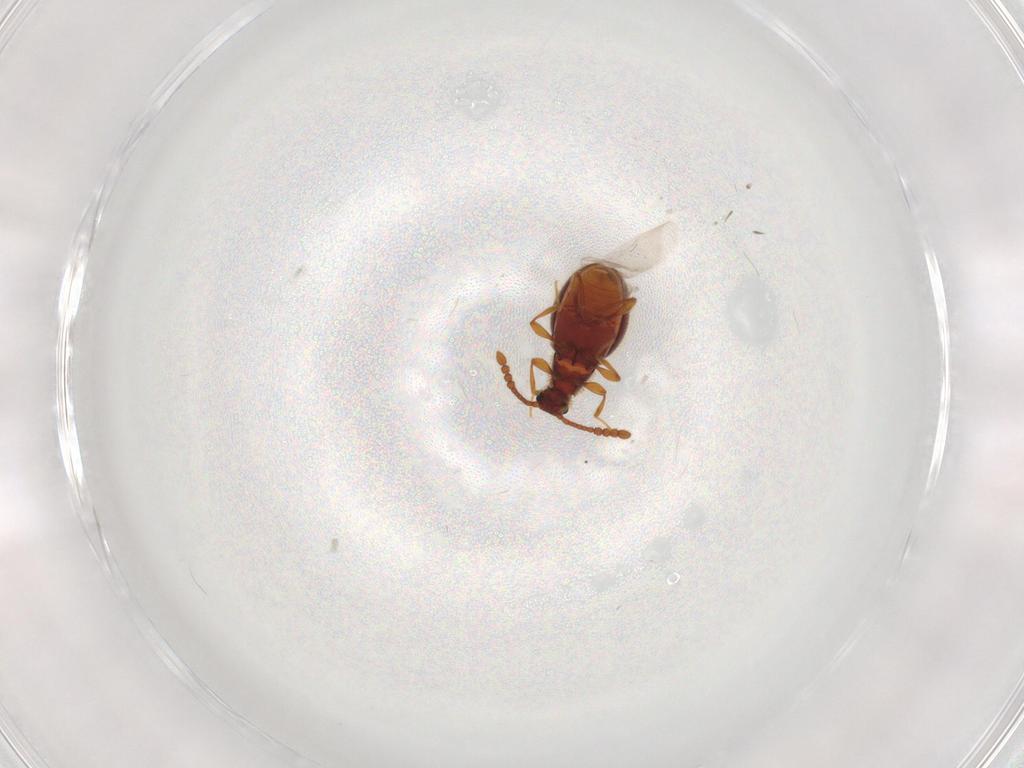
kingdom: Animalia
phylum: Arthropoda
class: Insecta
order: Coleoptera
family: Staphylinidae
